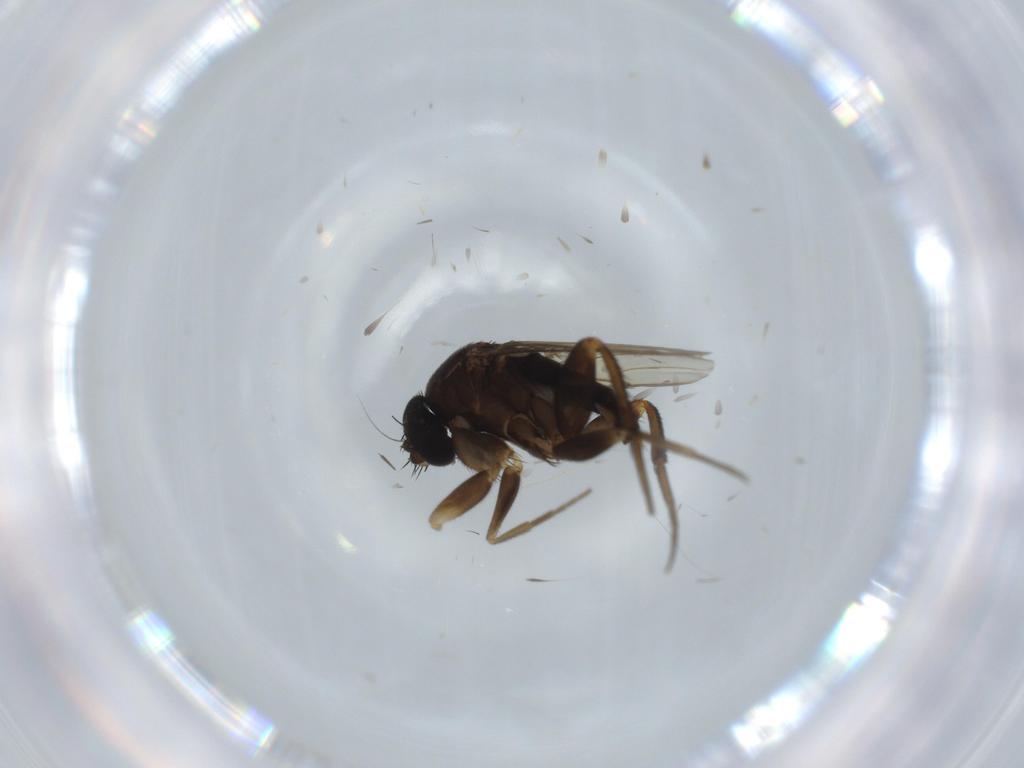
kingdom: Animalia
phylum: Arthropoda
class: Insecta
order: Diptera
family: Phoridae
